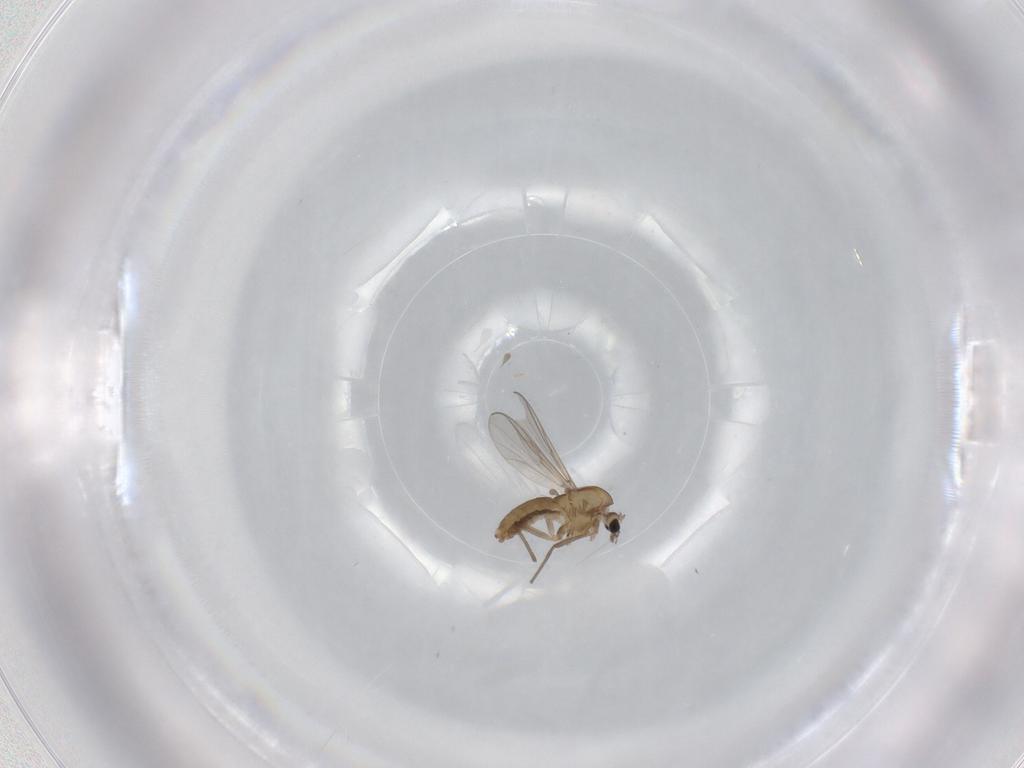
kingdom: Animalia
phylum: Arthropoda
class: Insecta
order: Diptera
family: Chironomidae
